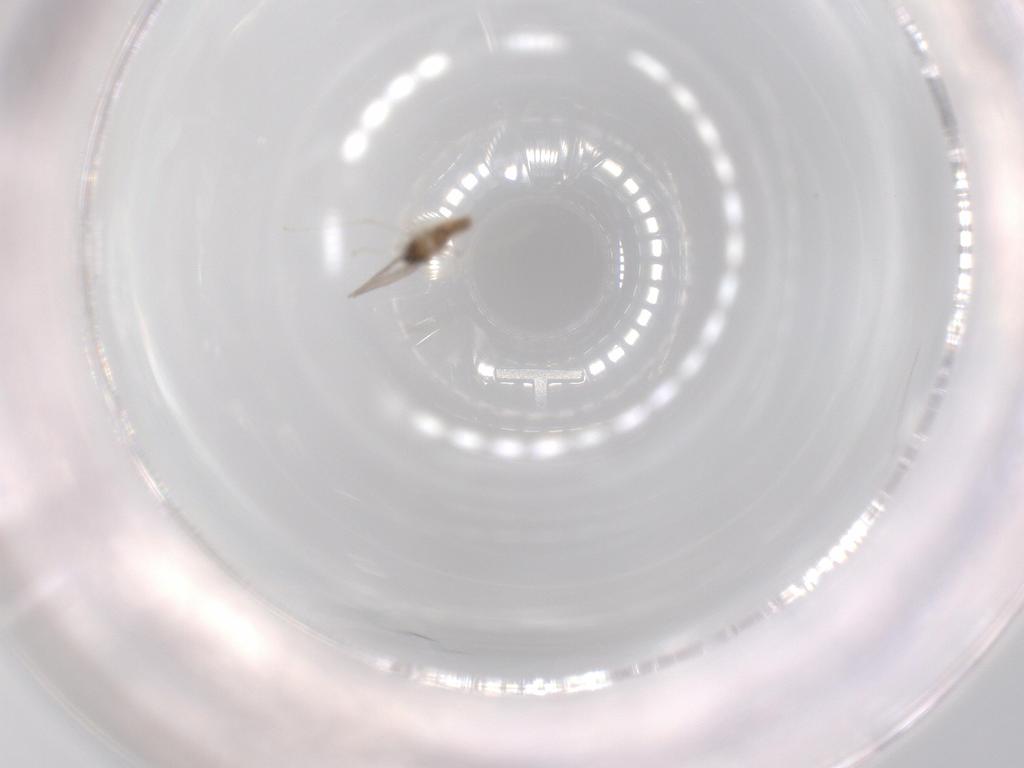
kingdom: Animalia
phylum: Arthropoda
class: Insecta
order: Diptera
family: Cecidomyiidae
